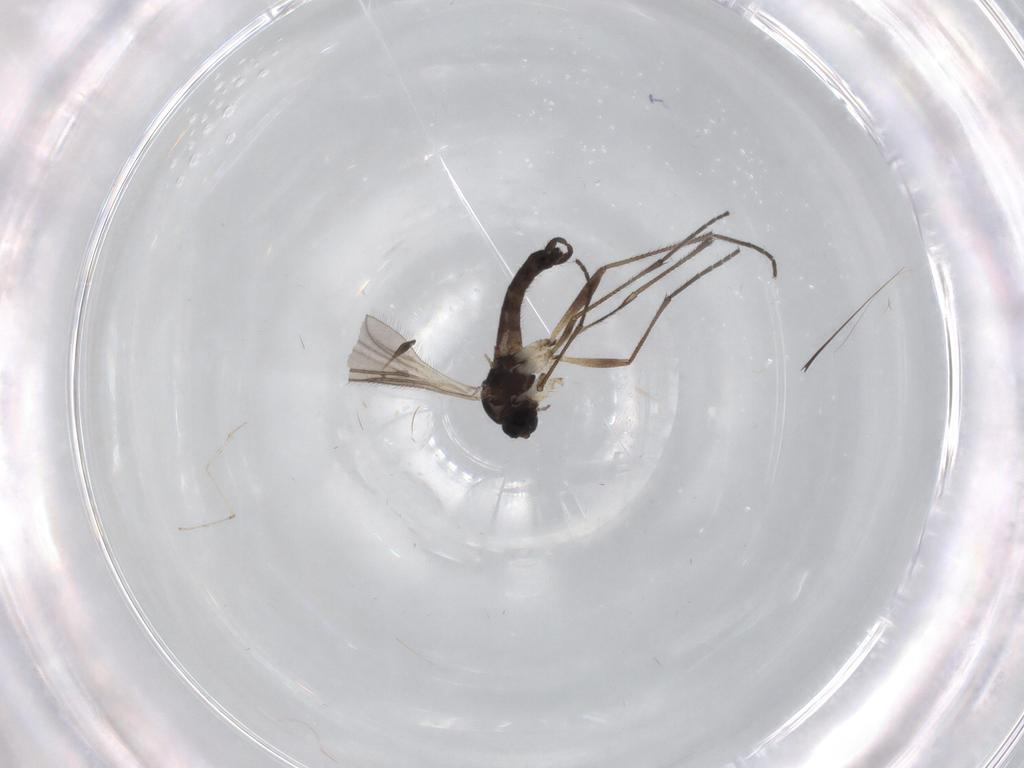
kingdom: Animalia
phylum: Arthropoda
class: Insecta
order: Diptera
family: Sciaridae
